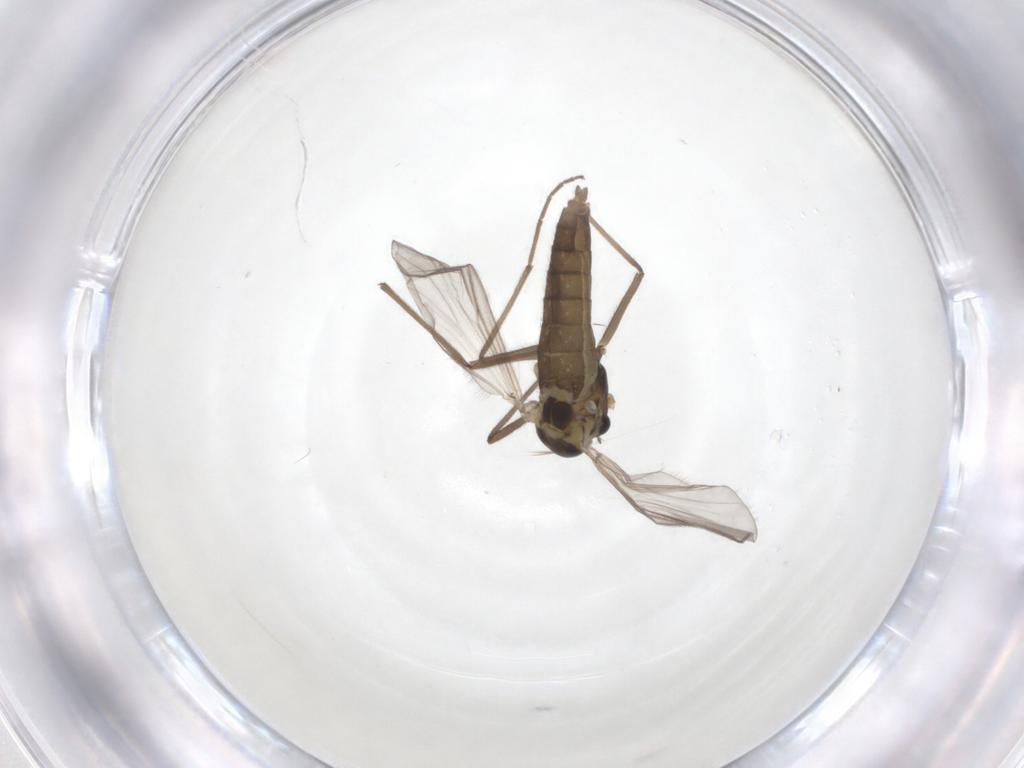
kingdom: Animalia
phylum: Arthropoda
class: Insecta
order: Diptera
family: Chironomidae
